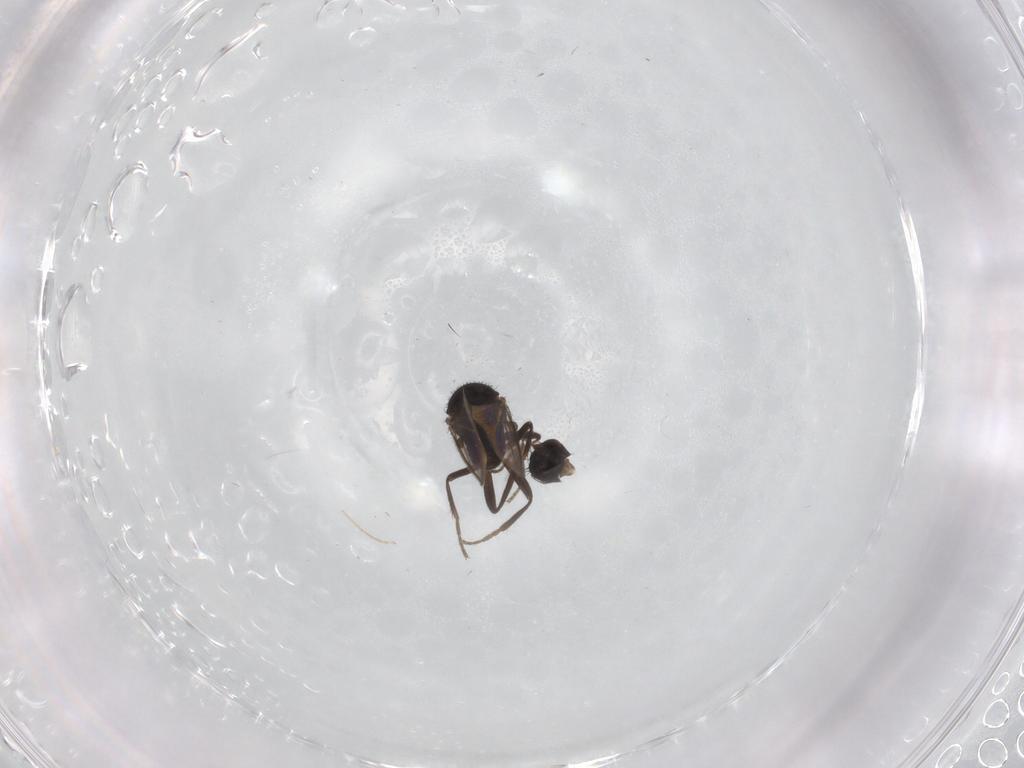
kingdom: Animalia
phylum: Arthropoda
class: Insecta
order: Diptera
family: Sphaeroceridae
